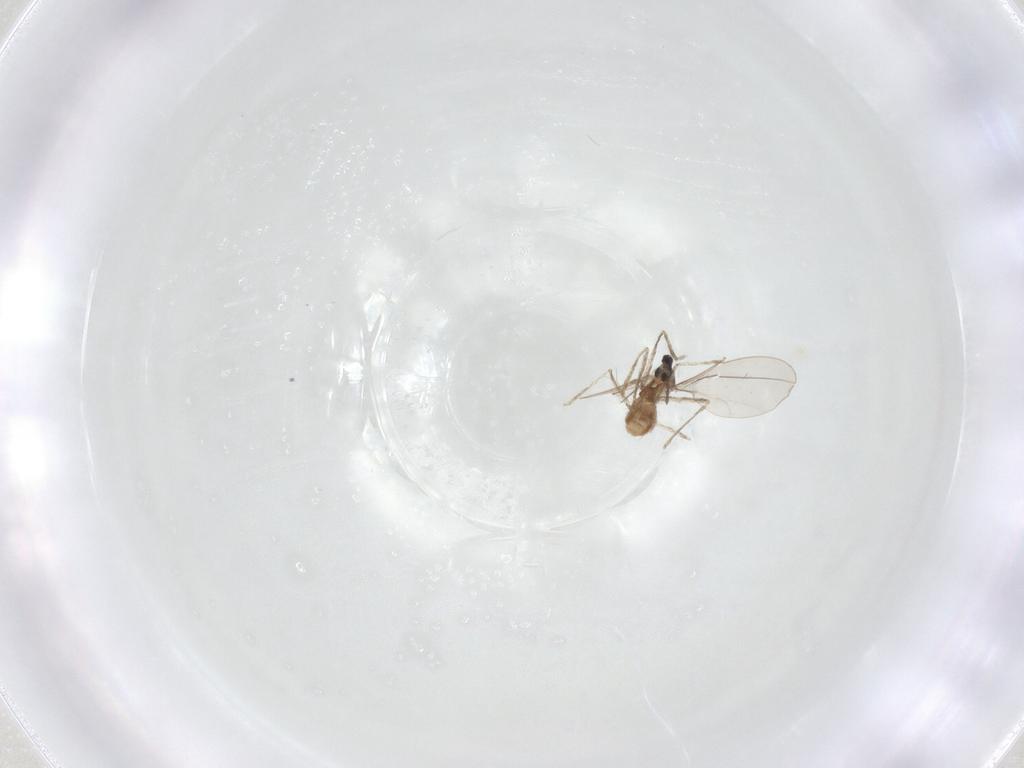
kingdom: Animalia
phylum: Arthropoda
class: Insecta
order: Diptera
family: Cecidomyiidae
